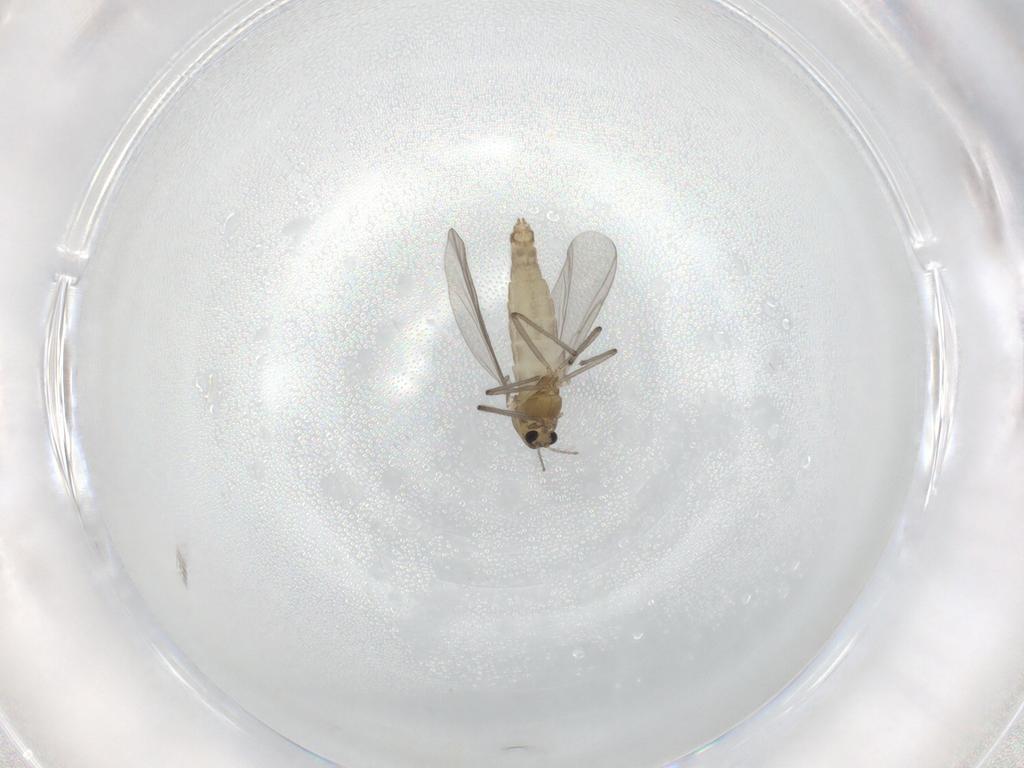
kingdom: Animalia
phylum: Arthropoda
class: Insecta
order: Diptera
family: Chironomidae
